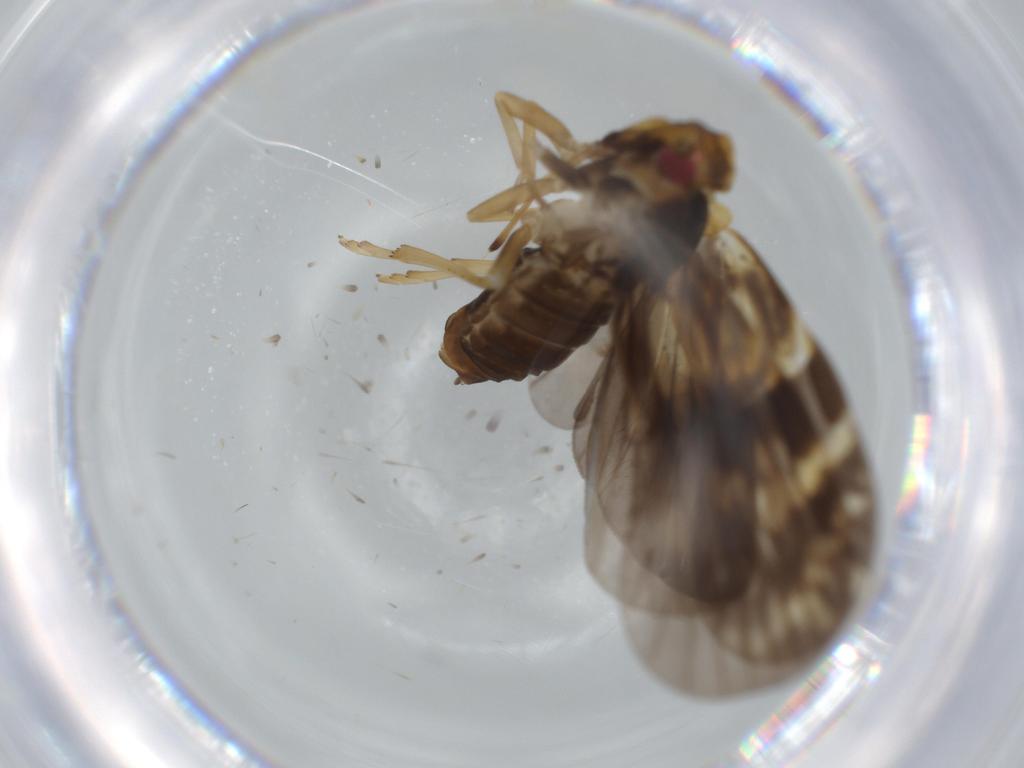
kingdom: Animalia
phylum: Arthropoda
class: Insecta
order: Hemiptera
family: Cixiidae
